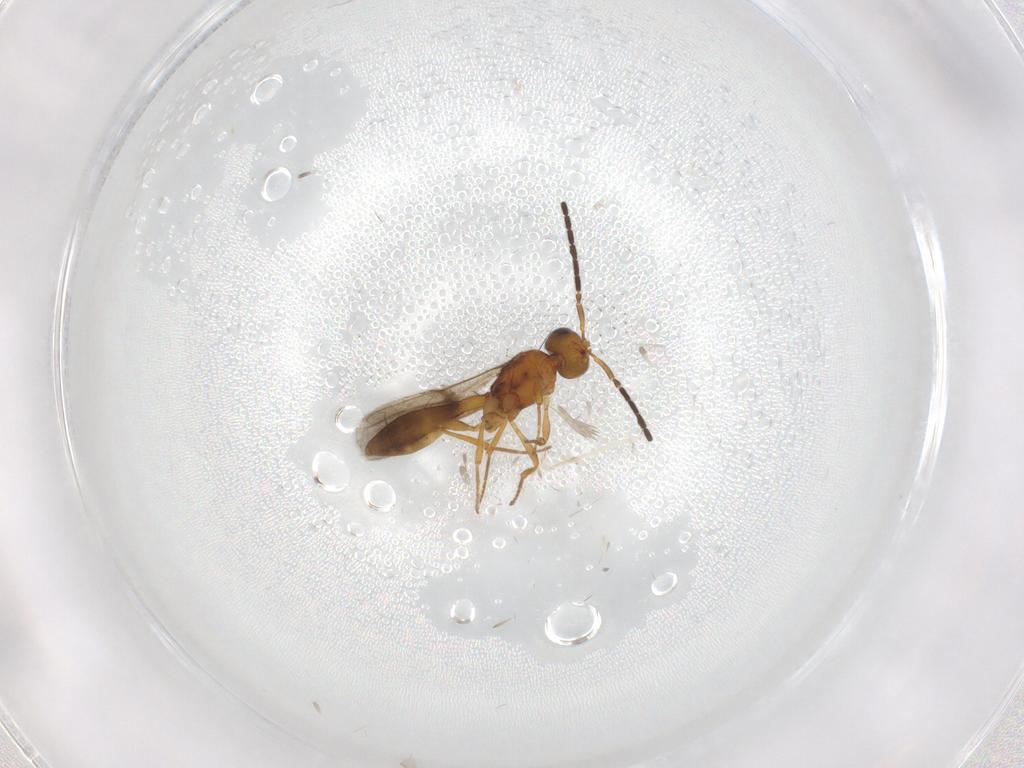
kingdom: Animalia
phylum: Arthropoda
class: Insecta
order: Hymenoptera
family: Scelionidae
